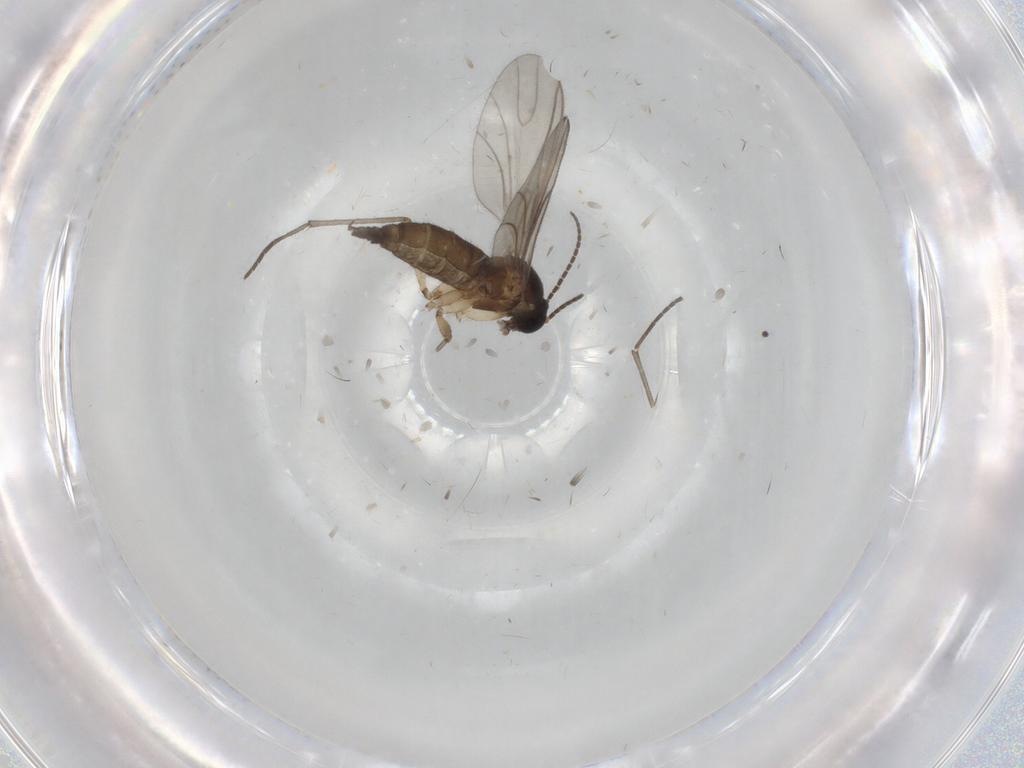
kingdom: Animalia
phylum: Arthropoda
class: Insecta
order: Diptera
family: Sciaridae
